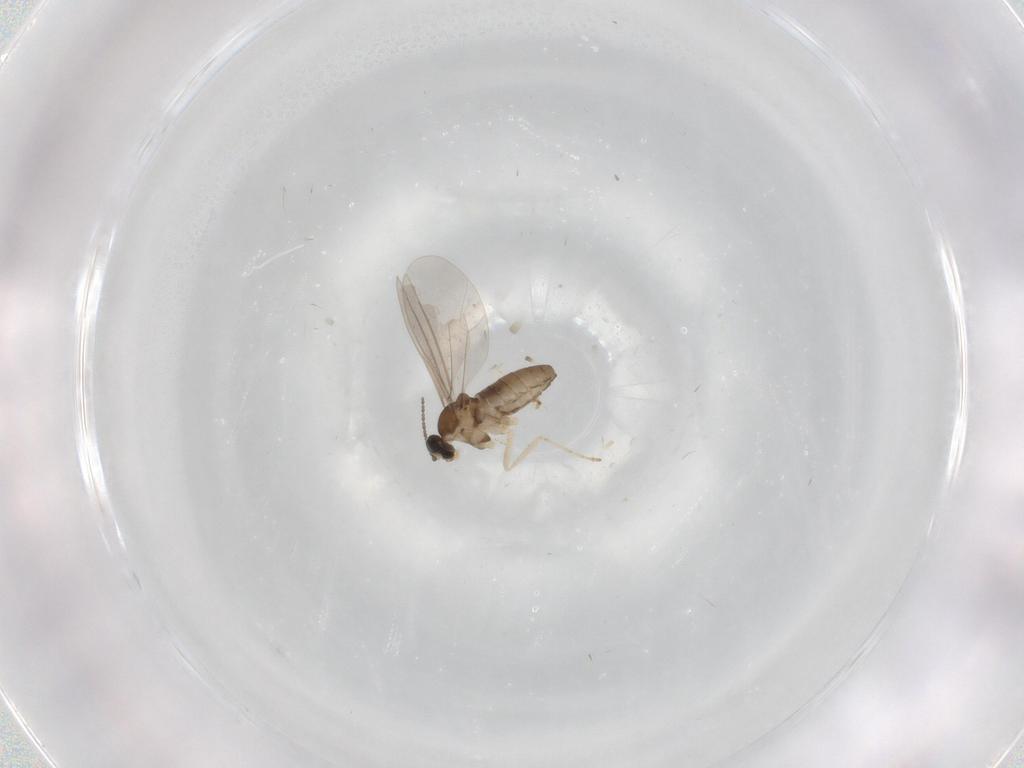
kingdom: Animalia
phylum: Arthropoda
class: Insecta
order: Diptera
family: Cecidomyiidae
